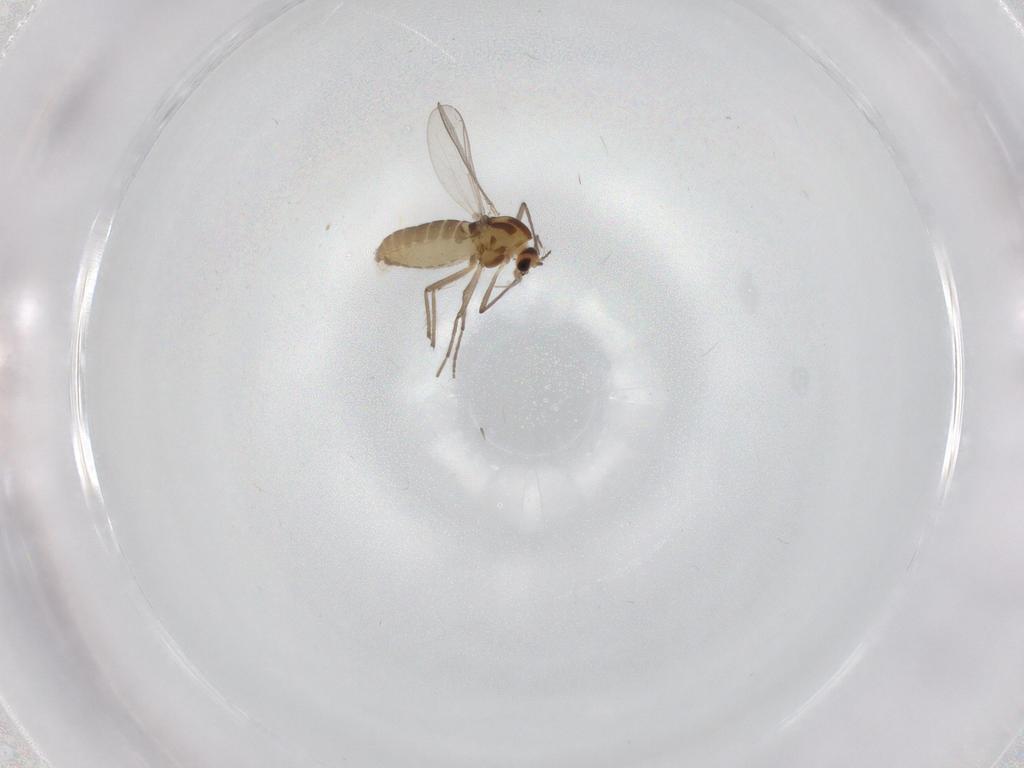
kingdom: Animalia
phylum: Arthropoda
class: Insecta
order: Diptera
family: Chironomidae
